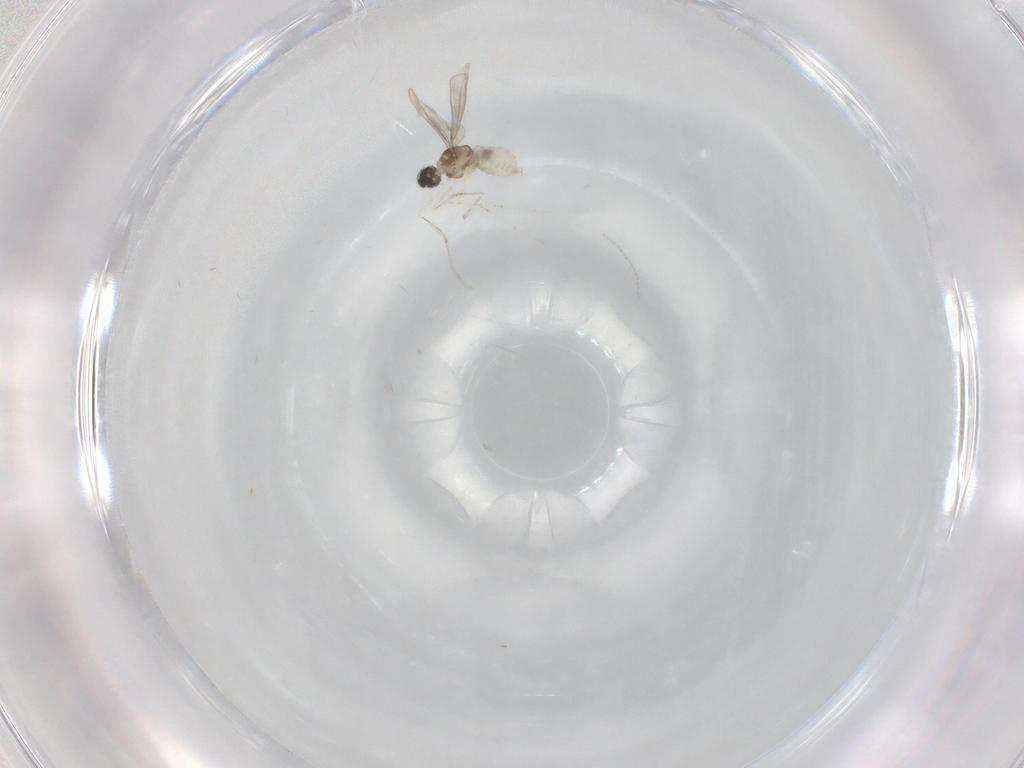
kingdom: Animalia
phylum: Arthropoda
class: Insecta
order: Diptera
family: Cecidomyiidae
